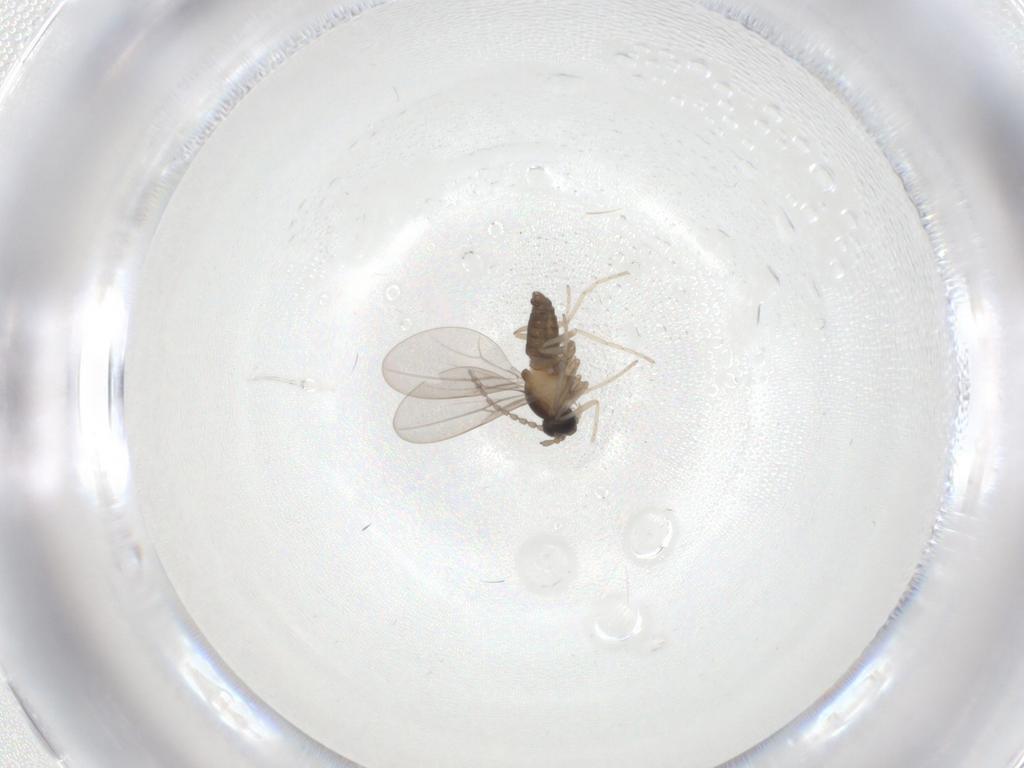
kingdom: Animalia
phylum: Arthropoda
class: Insecta
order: Diptera
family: Cecidomyiidae
